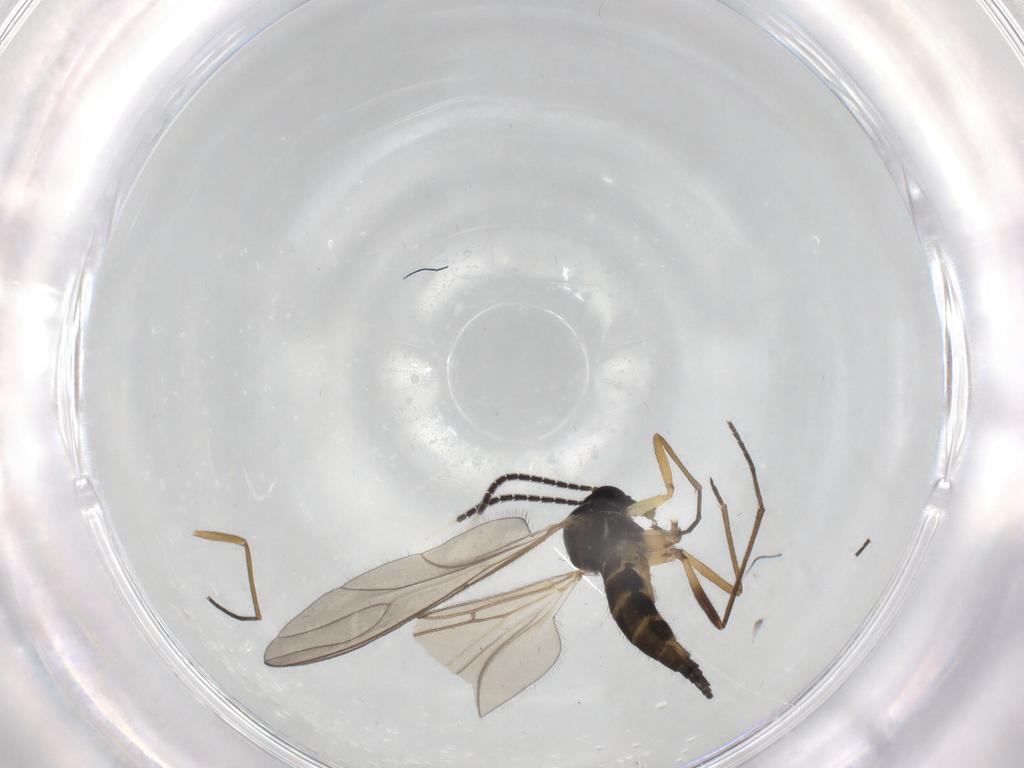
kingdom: Animalia
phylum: Arthropoda
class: Insecta
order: Diptera
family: Sciaridae
